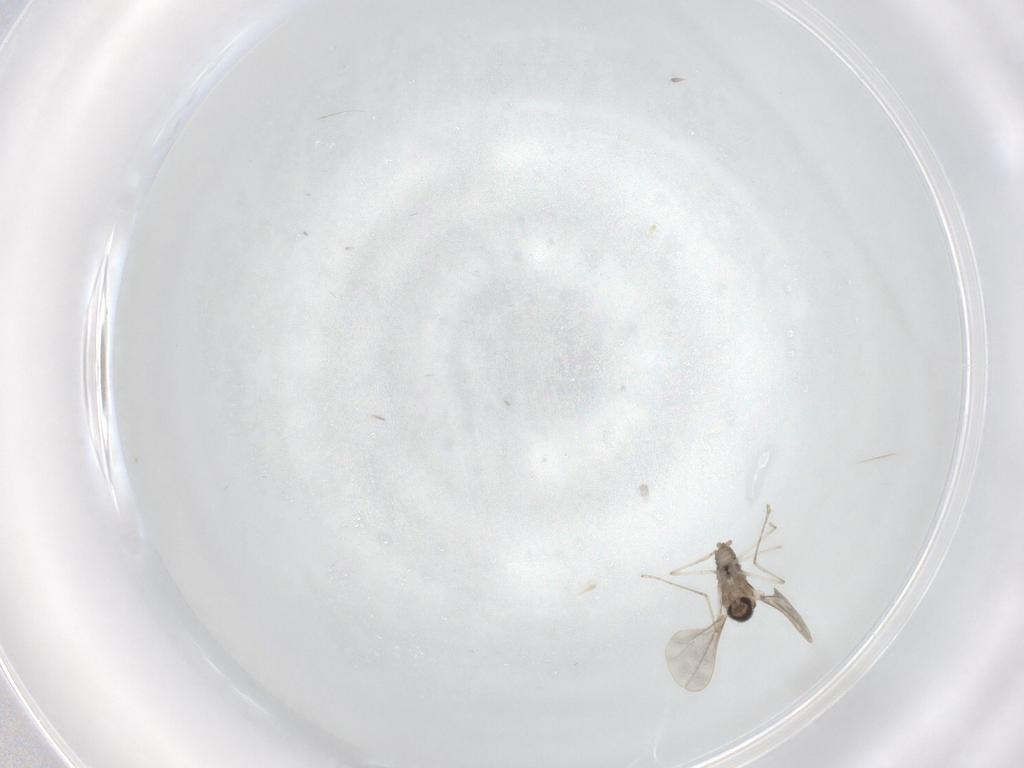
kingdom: Animalia
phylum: Arthropoda
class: Insecta
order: Diptera
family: Cecidomyiidae
